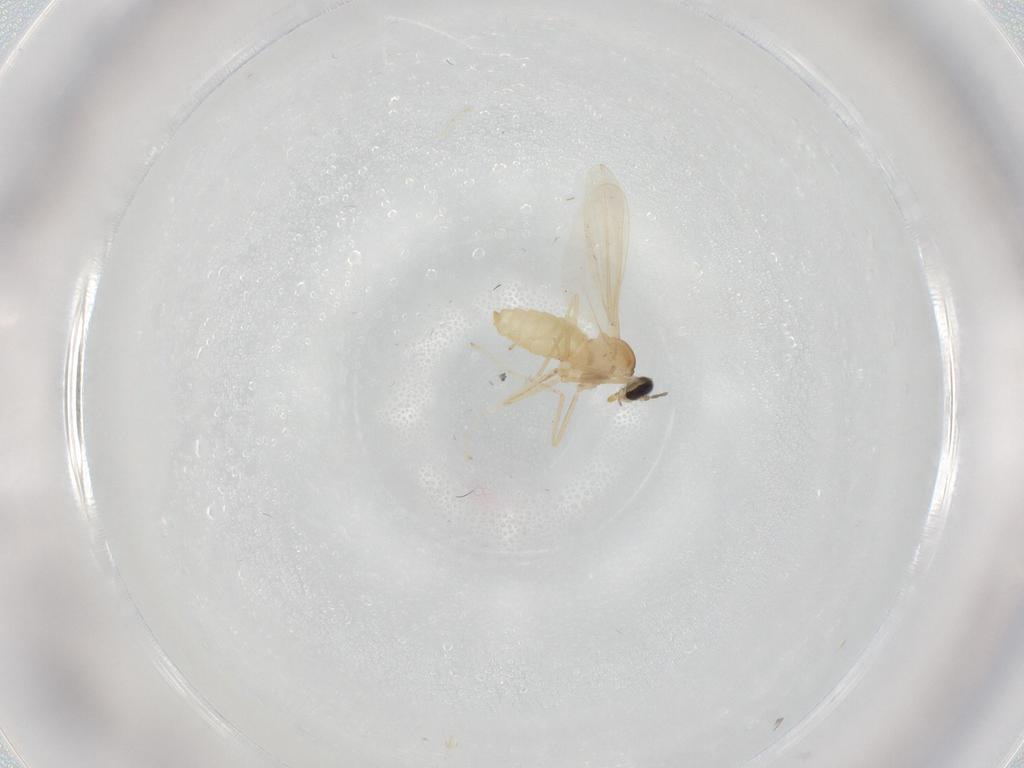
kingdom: Animalia
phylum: Arthropoda
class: Insecta
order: Diptera
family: Cecidomyiidae
